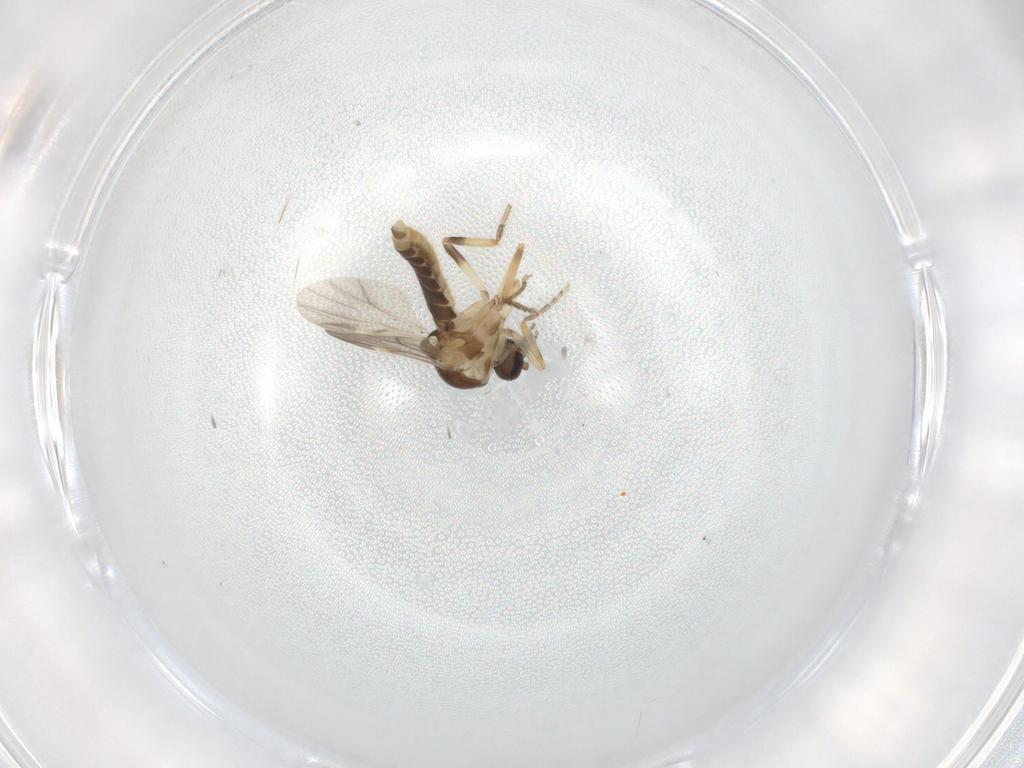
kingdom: Animalia
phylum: Arthropoda
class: Insecta
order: Diptera
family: Ceratopogonidae
